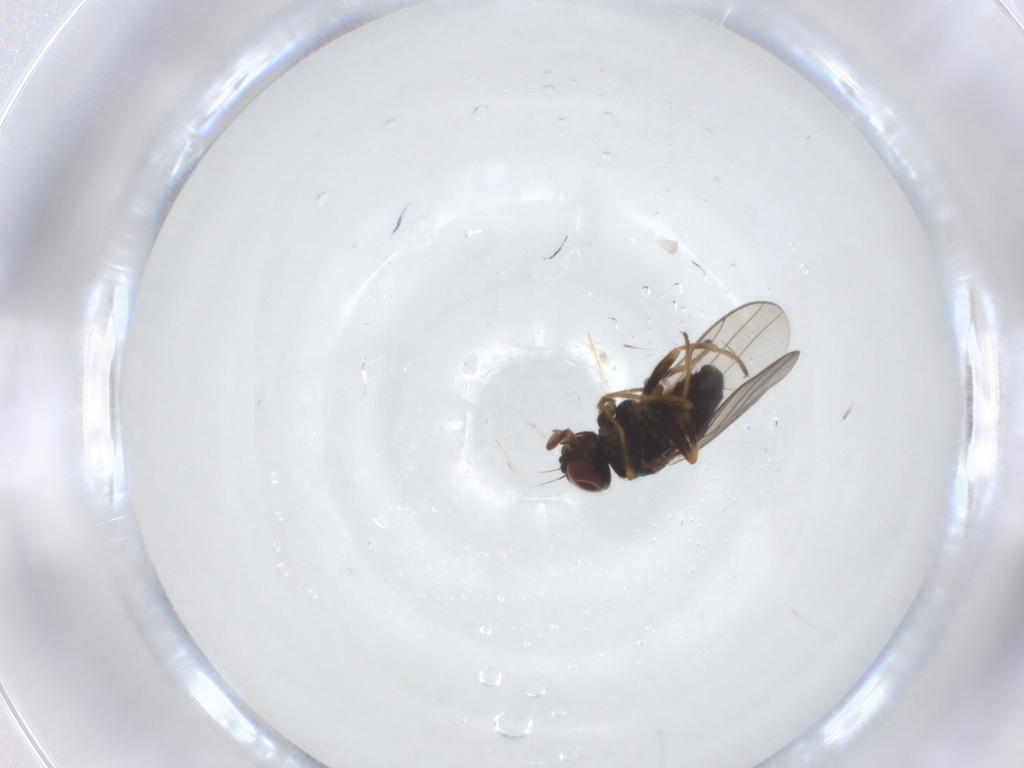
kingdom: Animalia
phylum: Arthropoda
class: Insecta
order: Diptera
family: Chloropidae
